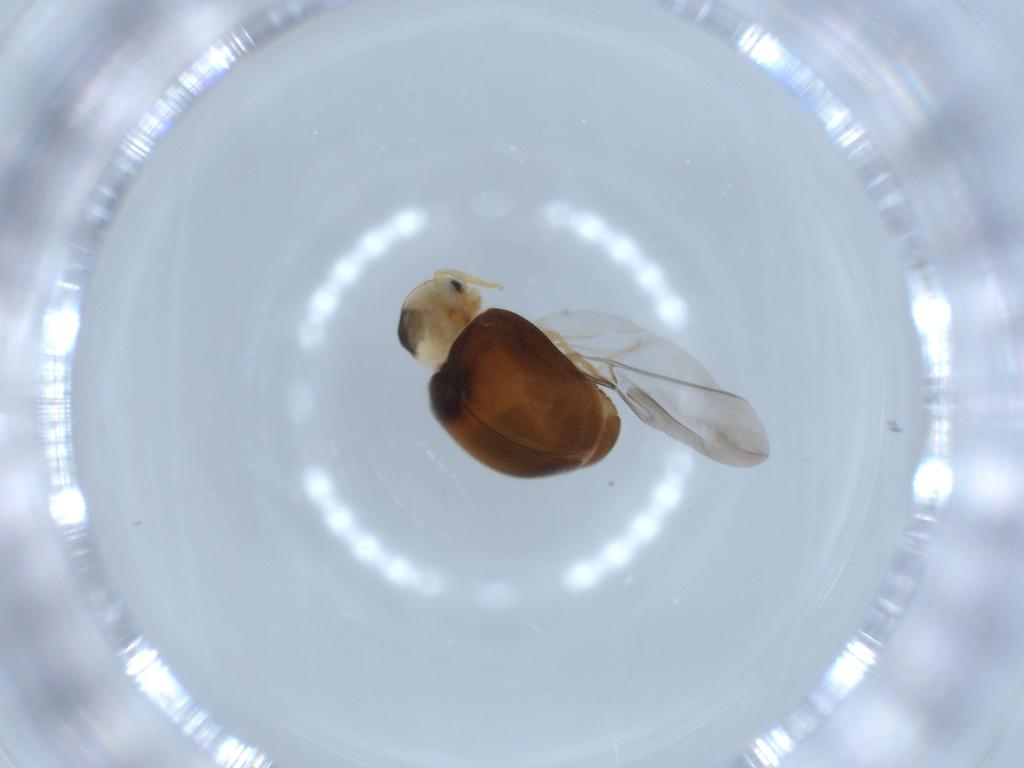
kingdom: Animalia
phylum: Arthropoda
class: Insecta
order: Coleoptera
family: Coccinellidae
